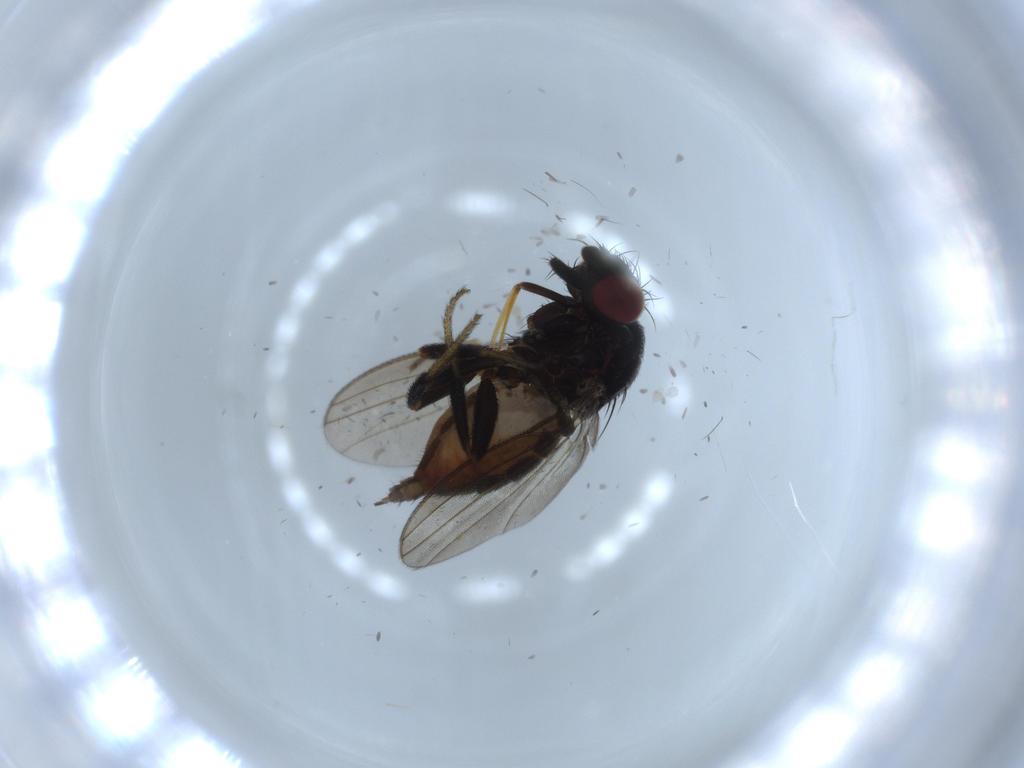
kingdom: Animalia
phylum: Arthropoda
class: Insecta
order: Diptera
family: Milichiidae
